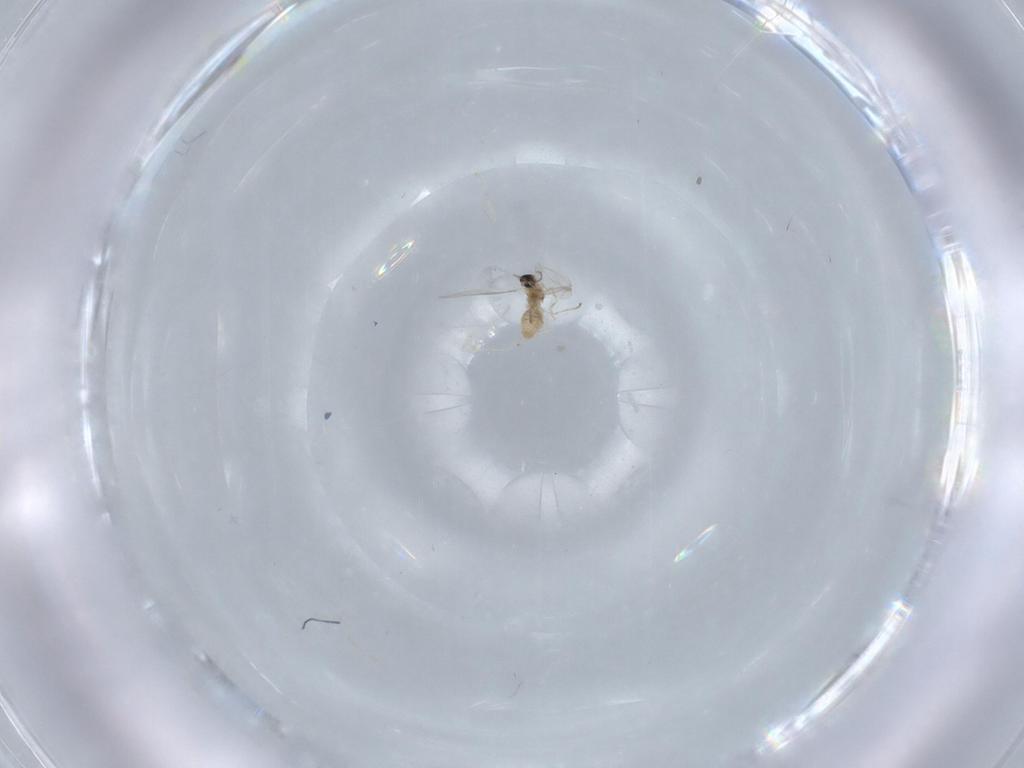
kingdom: Animalia
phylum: Arthropoda
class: Insecta
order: Diptera
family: Cecidomyiidae
